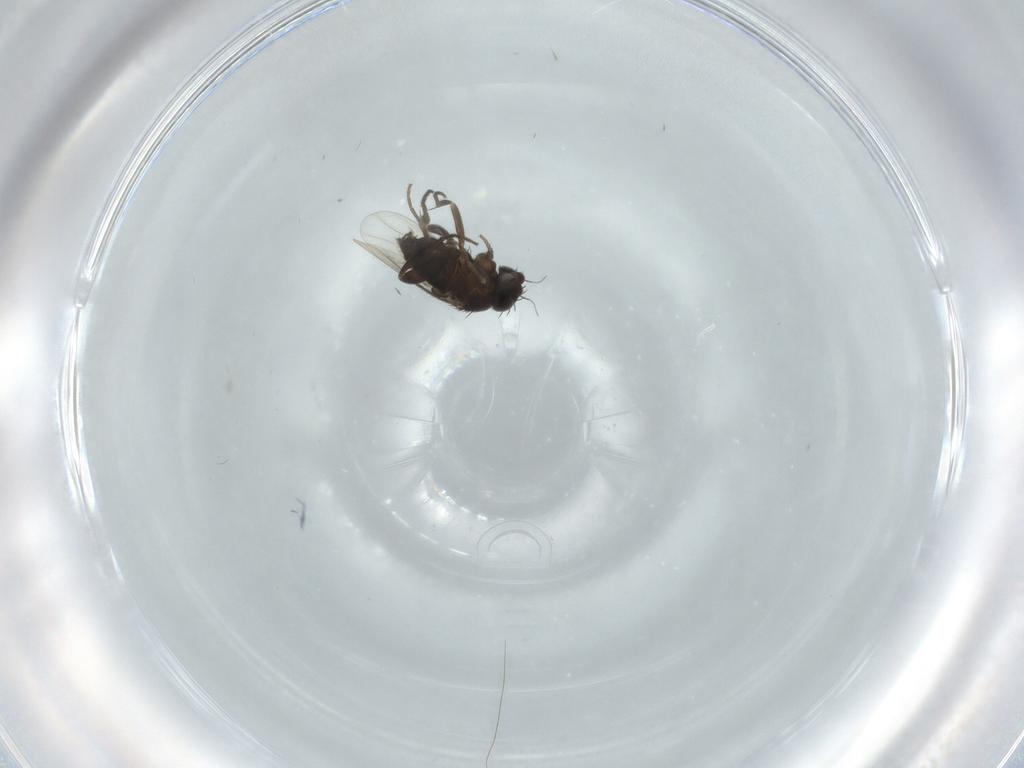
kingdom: Animalia
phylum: Arthropoda
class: Insecta
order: Diptera
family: Phoridae
